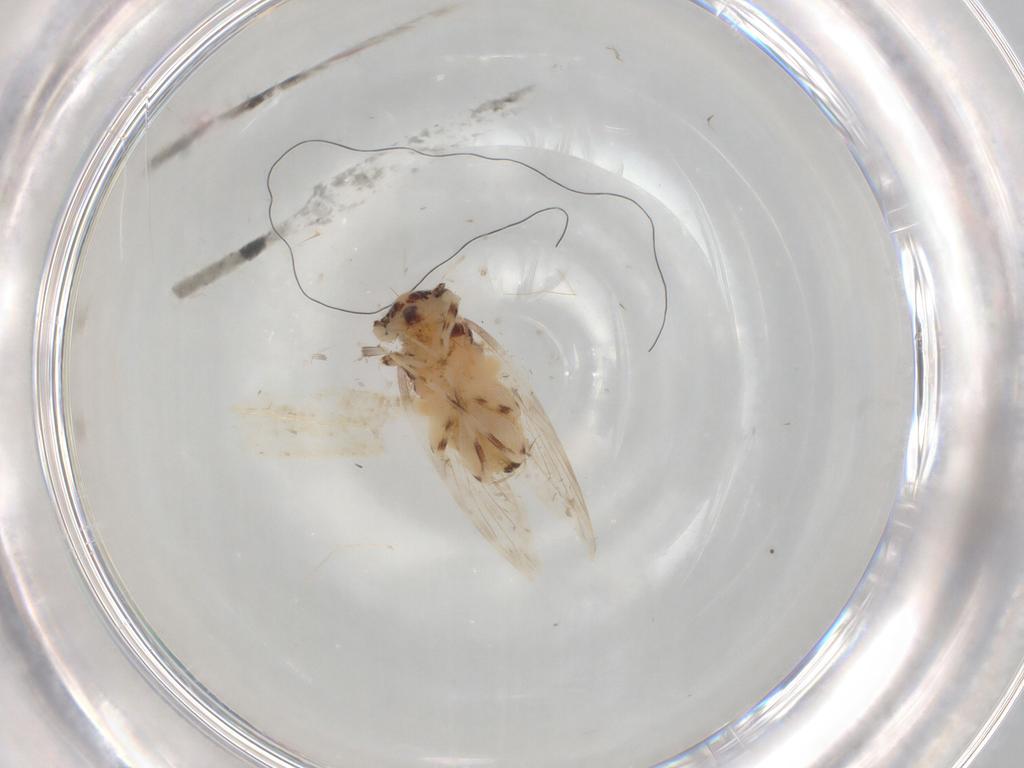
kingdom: Animalia
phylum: Arthropoda
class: Insecta
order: Psocodea
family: Lepidopsocidae
